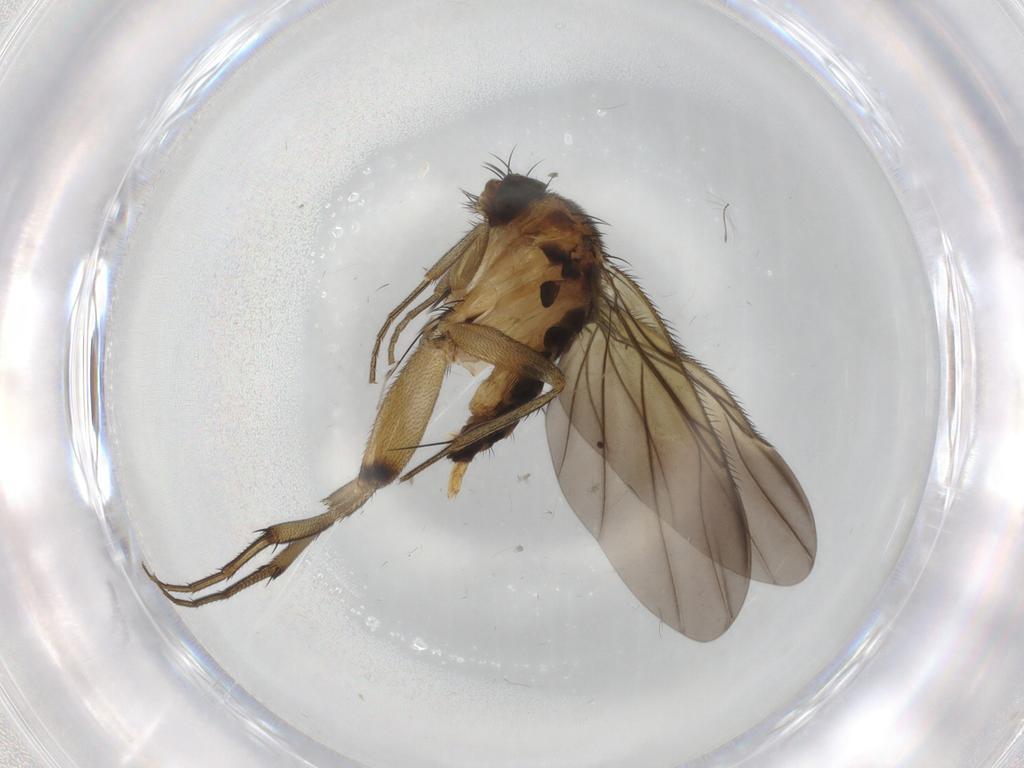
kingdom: Animalia
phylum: Arthropoda
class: Insecta
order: Diptera
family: Phoridae
